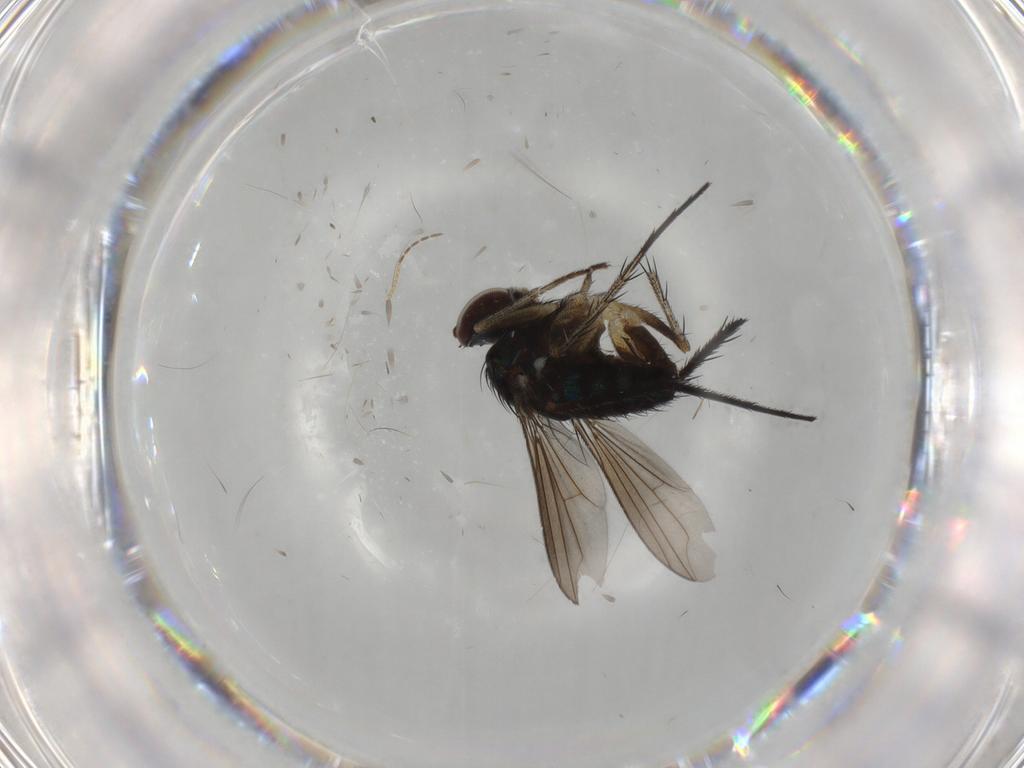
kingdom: Animalia
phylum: Arthropoda
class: Insecta
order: Diptera
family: Dolichopodidae
